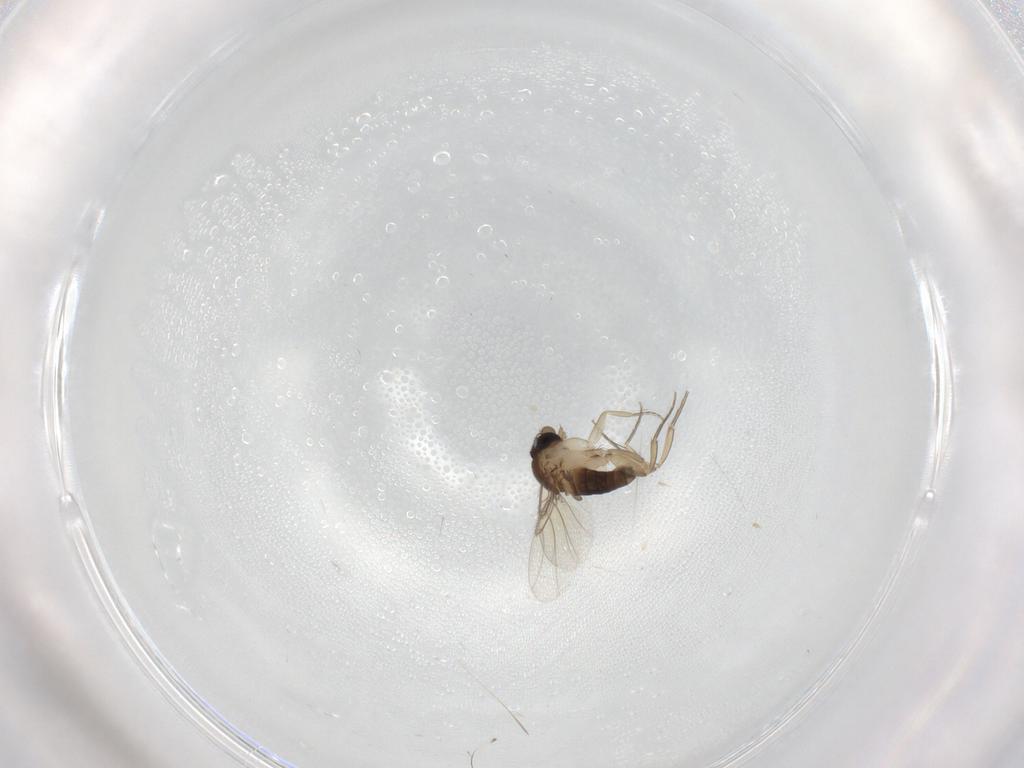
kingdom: Animalia
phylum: Arthropoda
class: Insecta
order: Diptera
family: Phoridae
